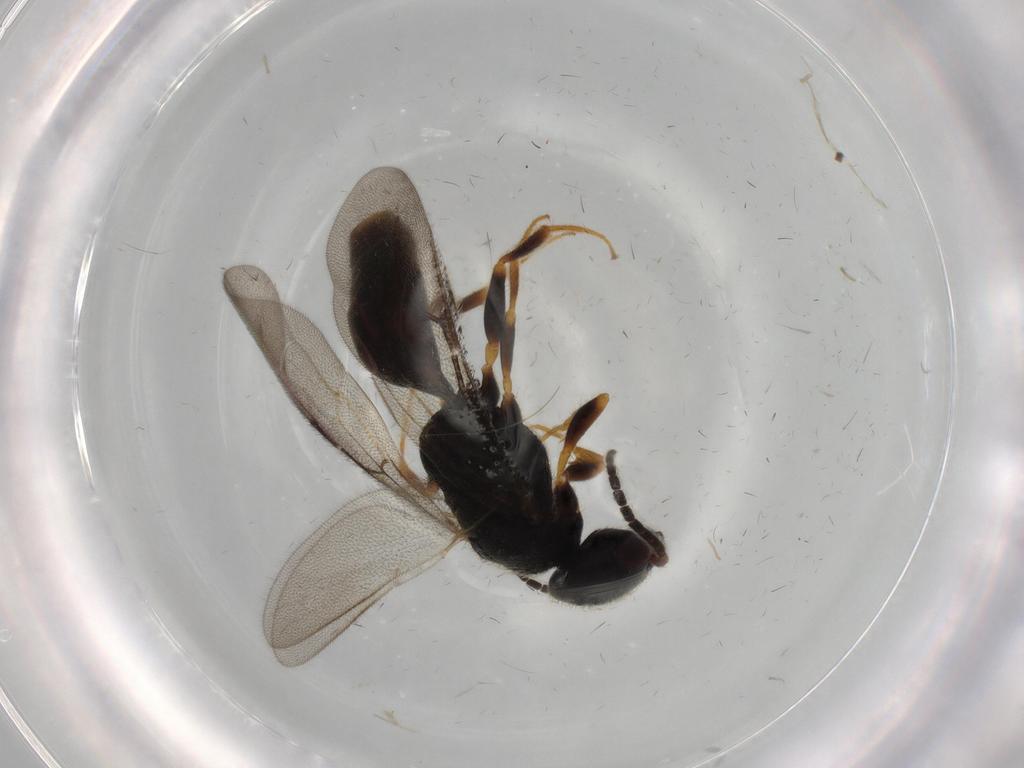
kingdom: Animalia
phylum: Arthropoda
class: Insecta
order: Hymenoptera
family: Bethylidae
